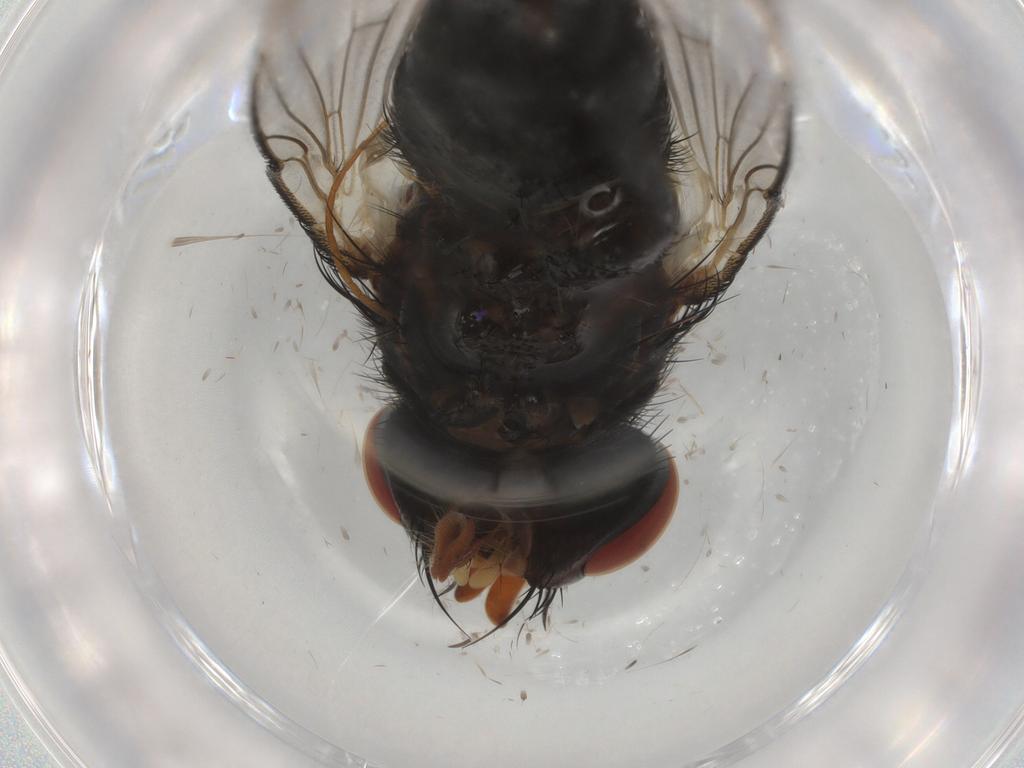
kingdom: Animalia
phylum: Arthropoda
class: Insecta
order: Diptera
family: Tachinidae
